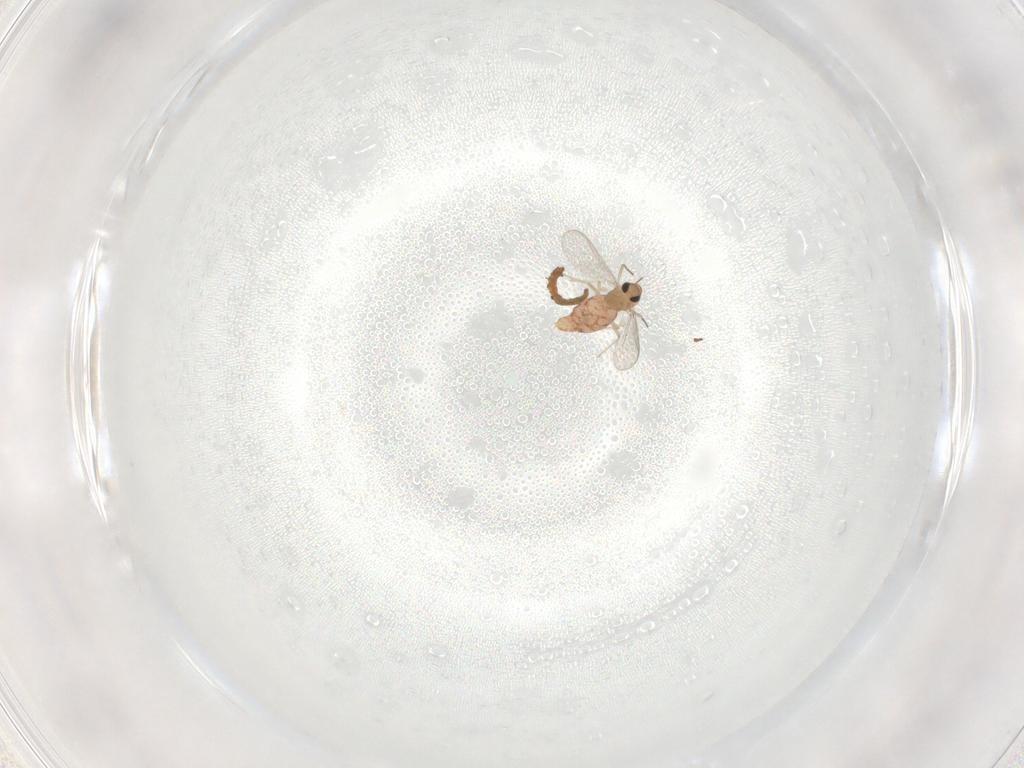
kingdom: Animalia
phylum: Arthropoda
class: Insecta
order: Diptera
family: Chironomidae
